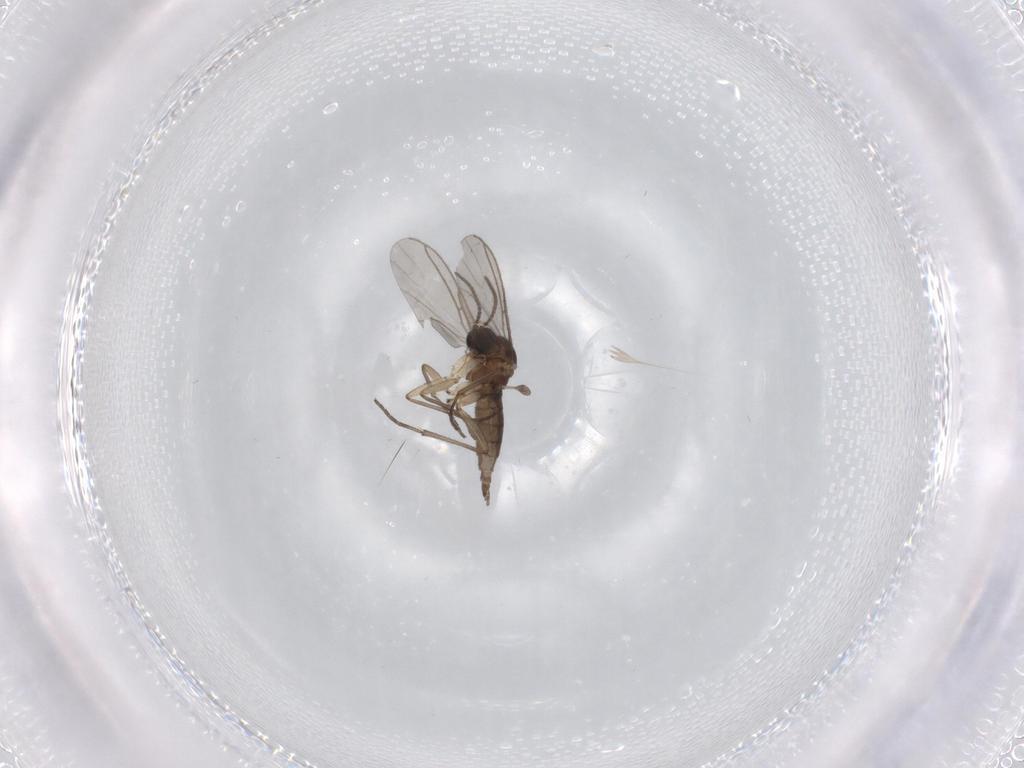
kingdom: Animalia
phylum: Arthropoda
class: Insecta
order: Diptera
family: Sciaridae
